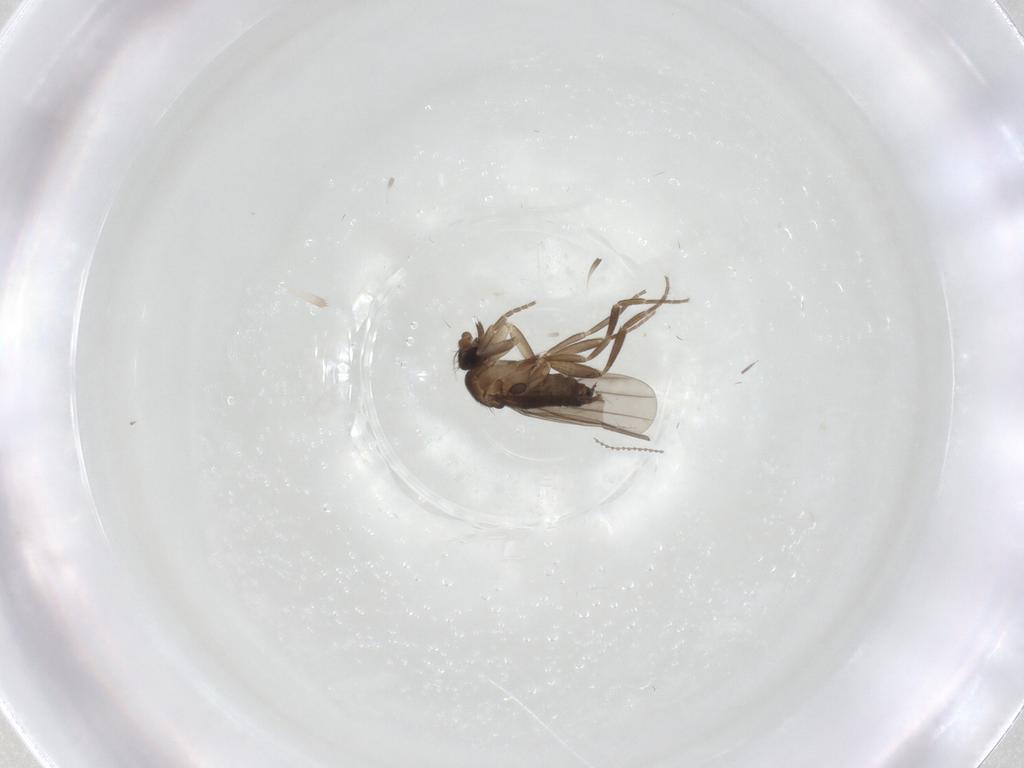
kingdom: Animalia
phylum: Arthropoda
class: Insecta
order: Diptera
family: Cecidomyiidae
